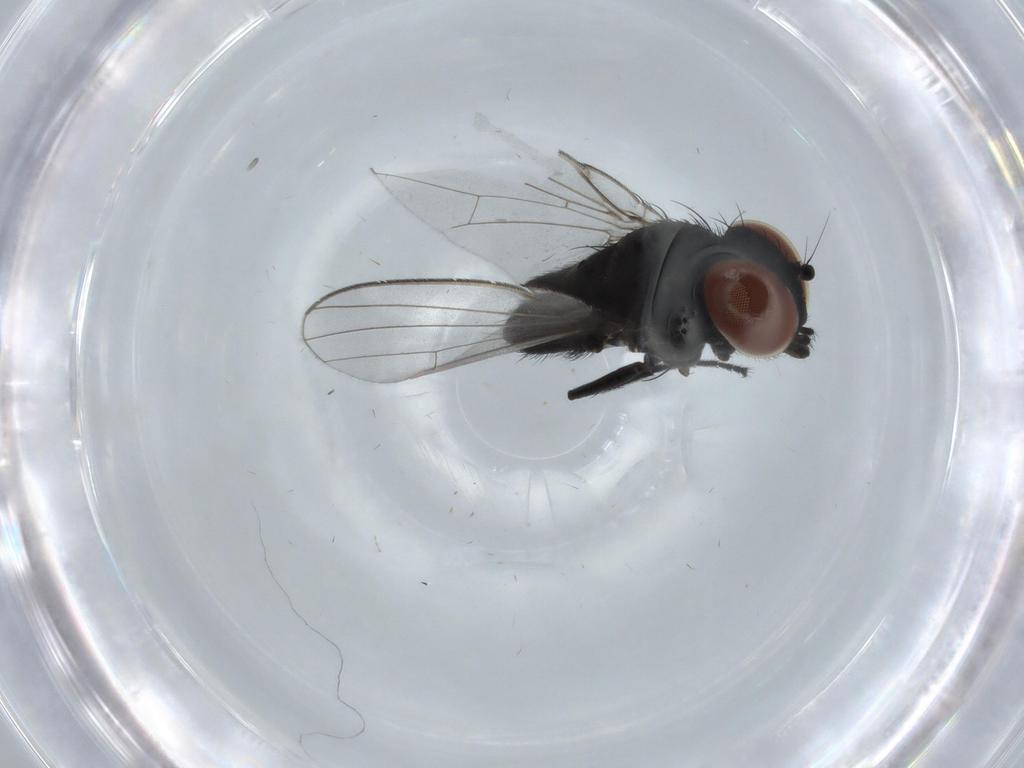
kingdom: Animalia
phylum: Arthropoda
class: Insecta
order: Diptera
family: Milichiidae
